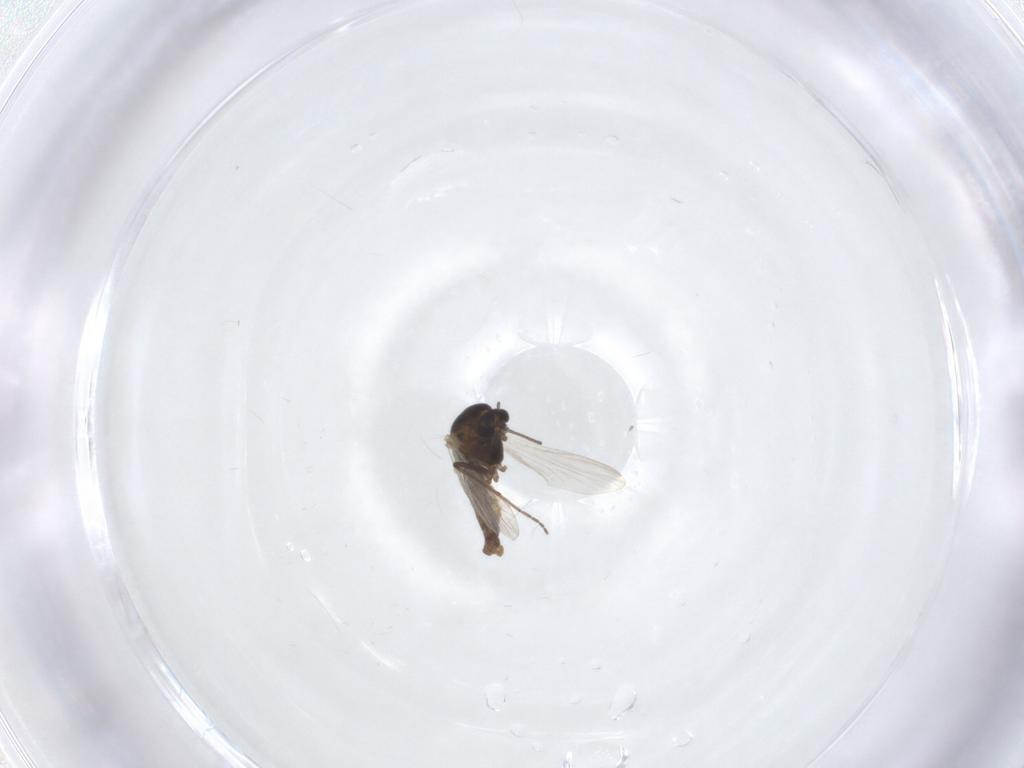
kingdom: Animalia
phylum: Arthropoda
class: Insecta
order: Diptera
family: Chironomidae
